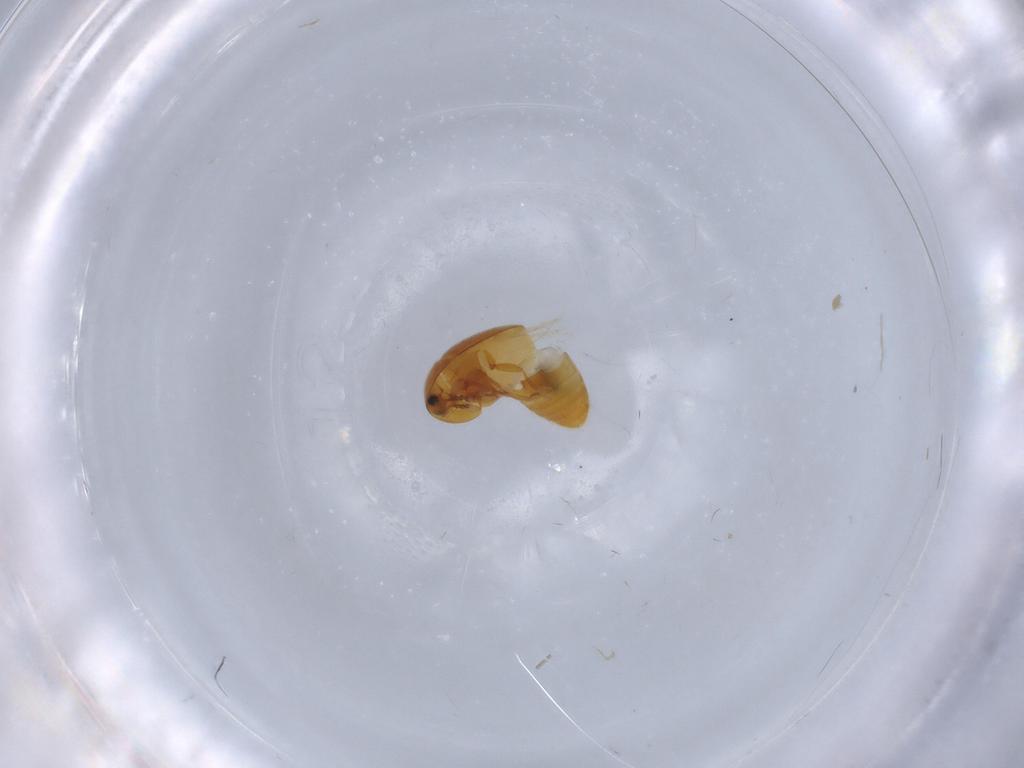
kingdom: Animalia
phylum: Arthropoda
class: Insecta
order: Coleoptera
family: Corylophidae
